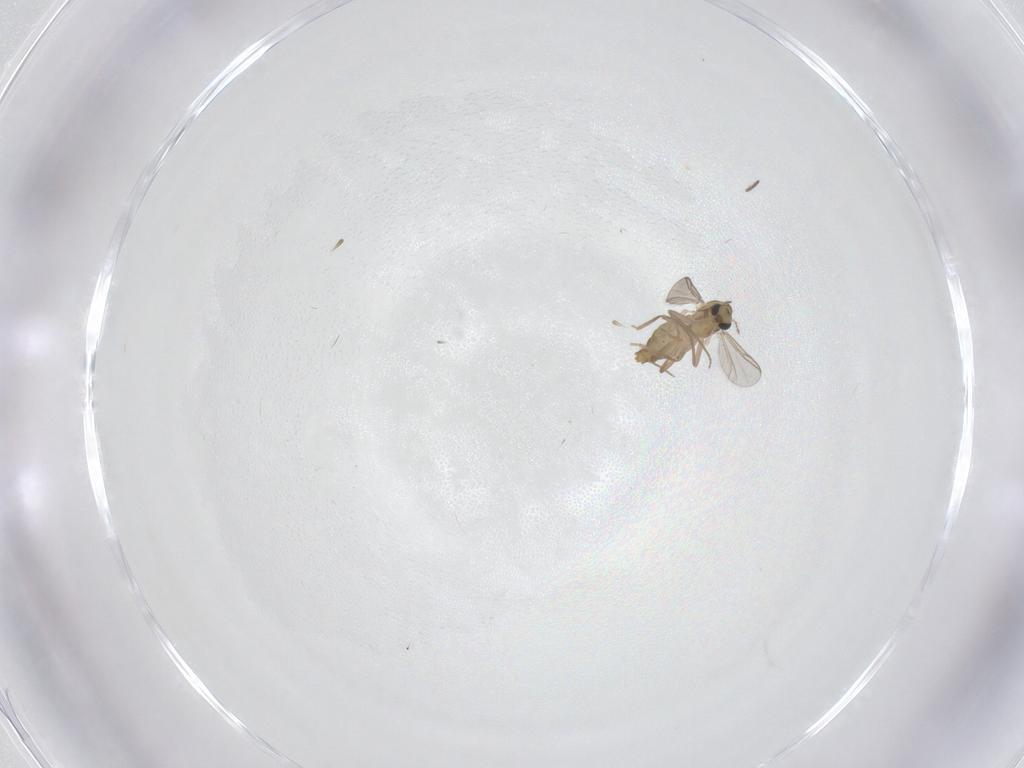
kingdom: Animalia
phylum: Arthropoda
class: Insecta
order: Diptera
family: Chironomidae
